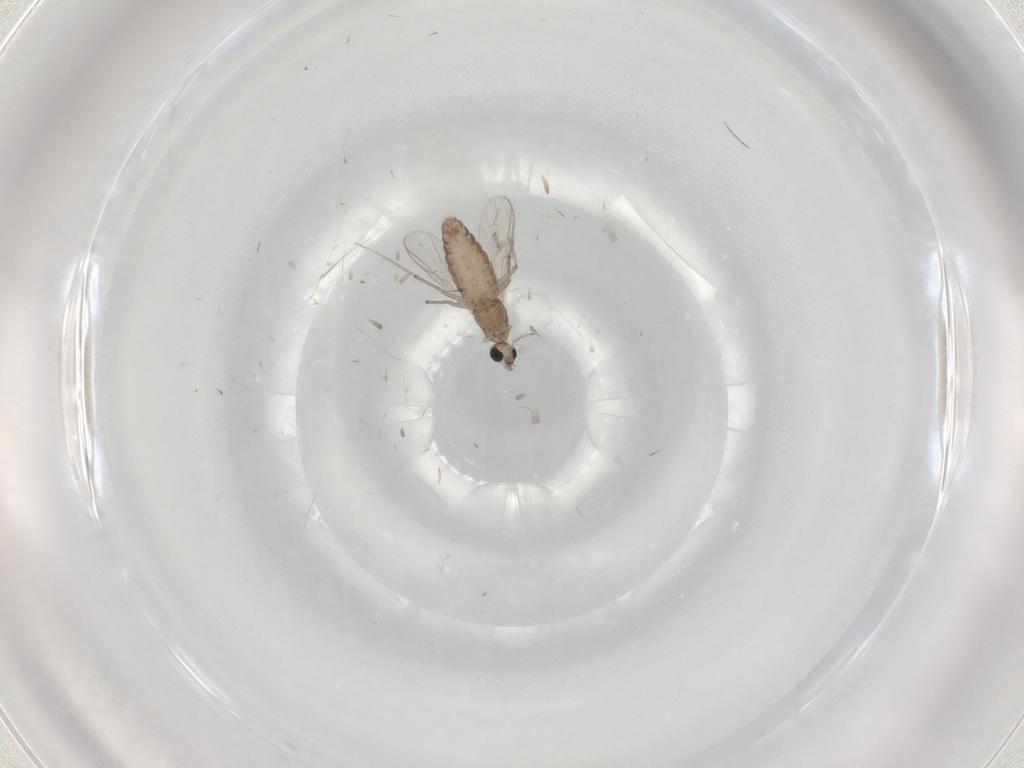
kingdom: Animalia
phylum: Arthropoda
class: Insecta
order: Diptera
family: Chironomidae
